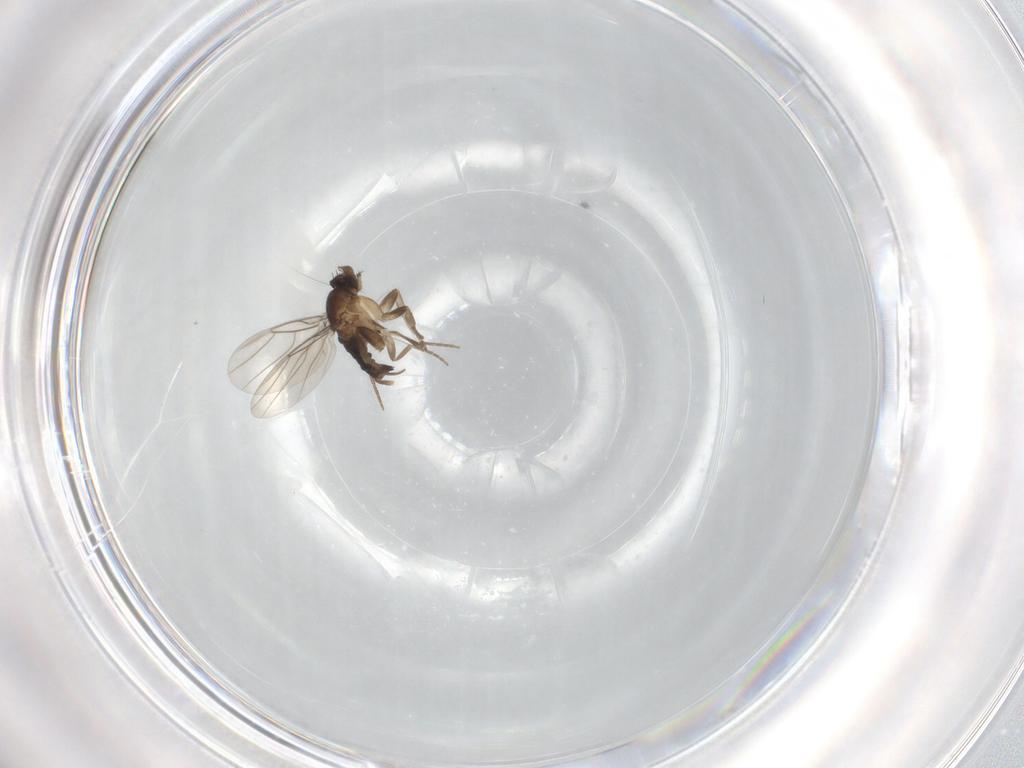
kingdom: Animalia
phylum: Arthropoda
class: Insecta
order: Diptera
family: Phoridae
